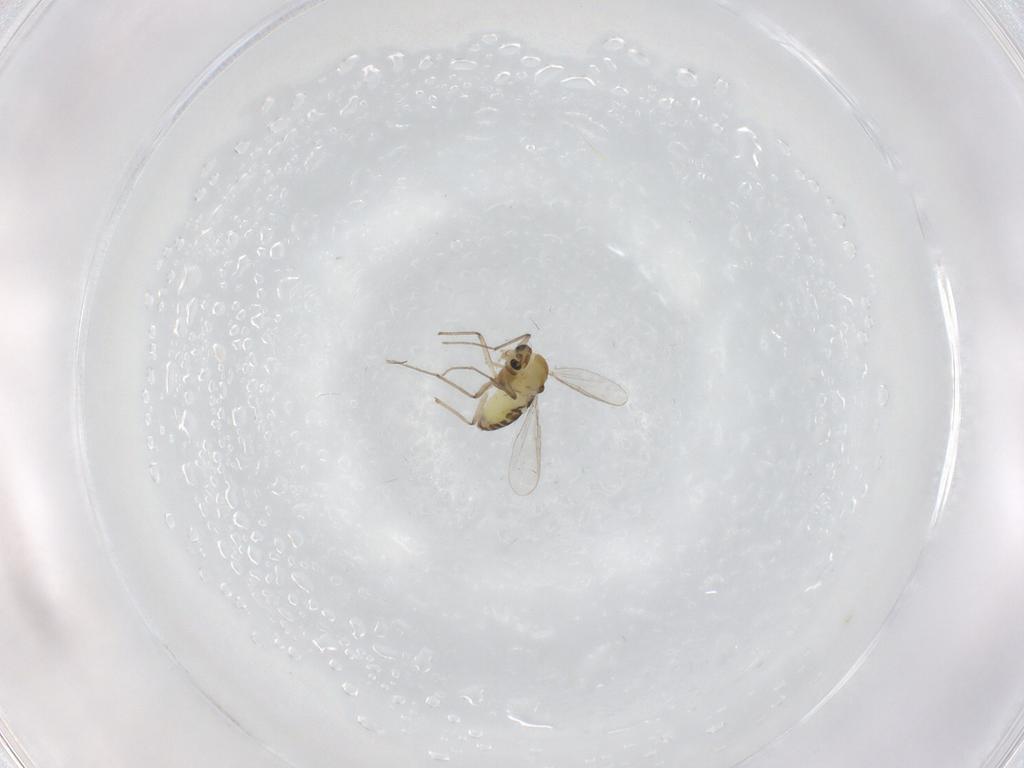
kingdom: Animalia
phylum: Arthropoda
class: Insecta
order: Diptera
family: Chironomidae
